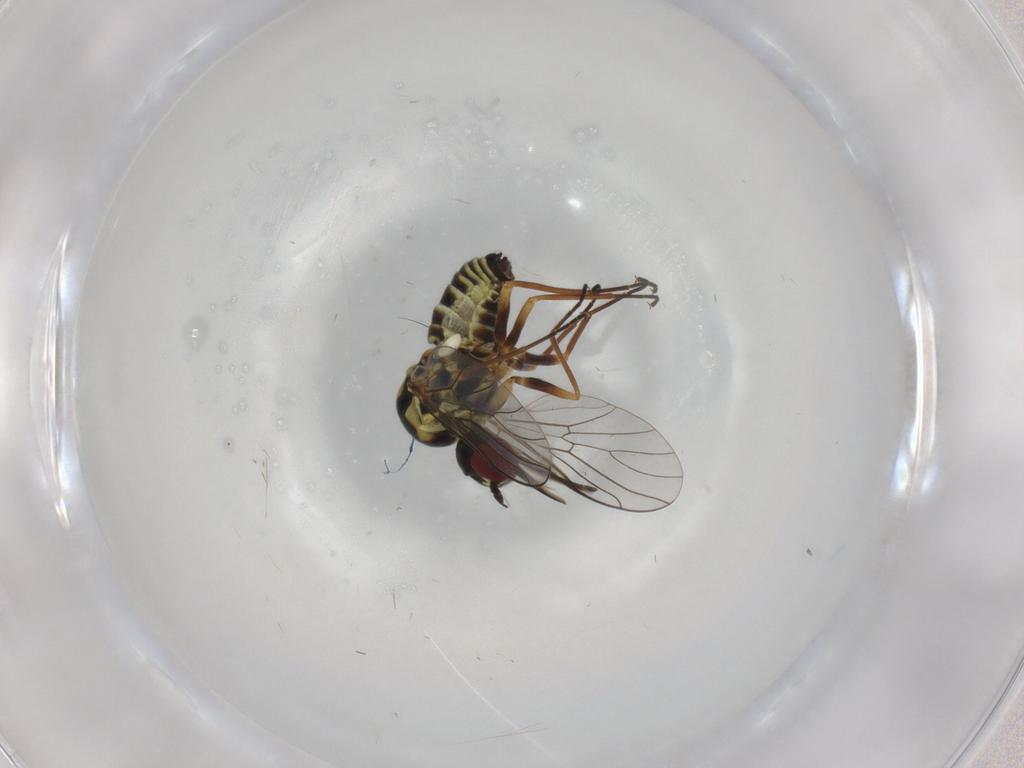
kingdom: Animalia
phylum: Arthropoda
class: Insecta
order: Diptera
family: Bombyliidae
